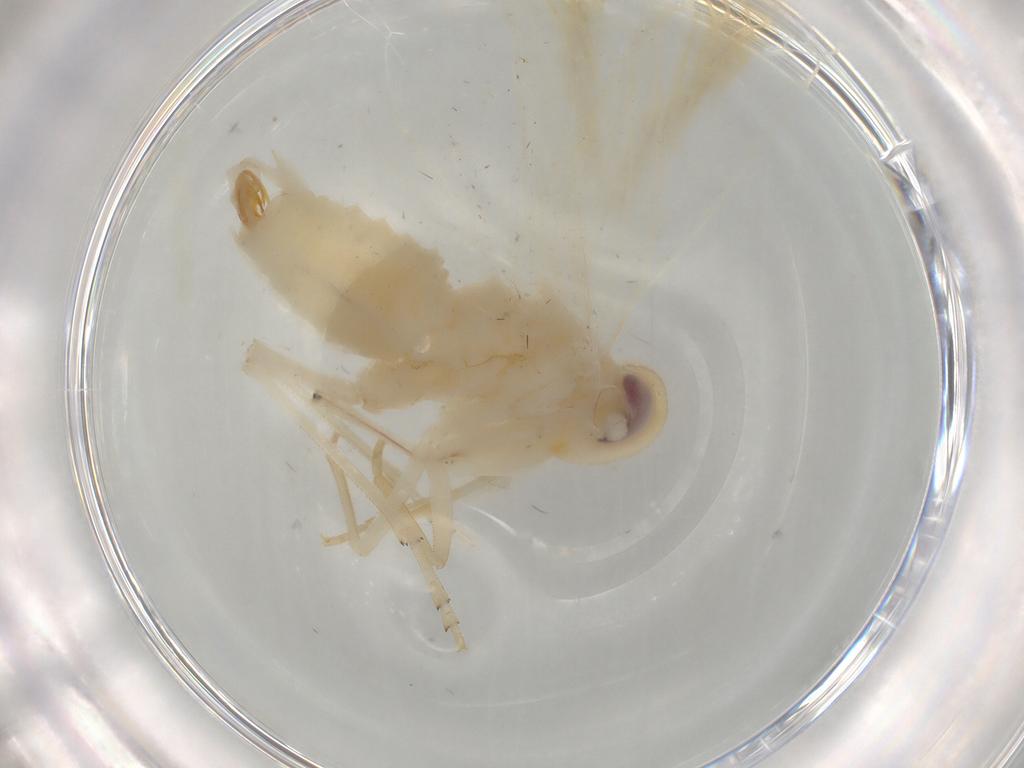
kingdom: Animalia
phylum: Arthropoda
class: Insecta
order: Hemiptera
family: Derbidae
